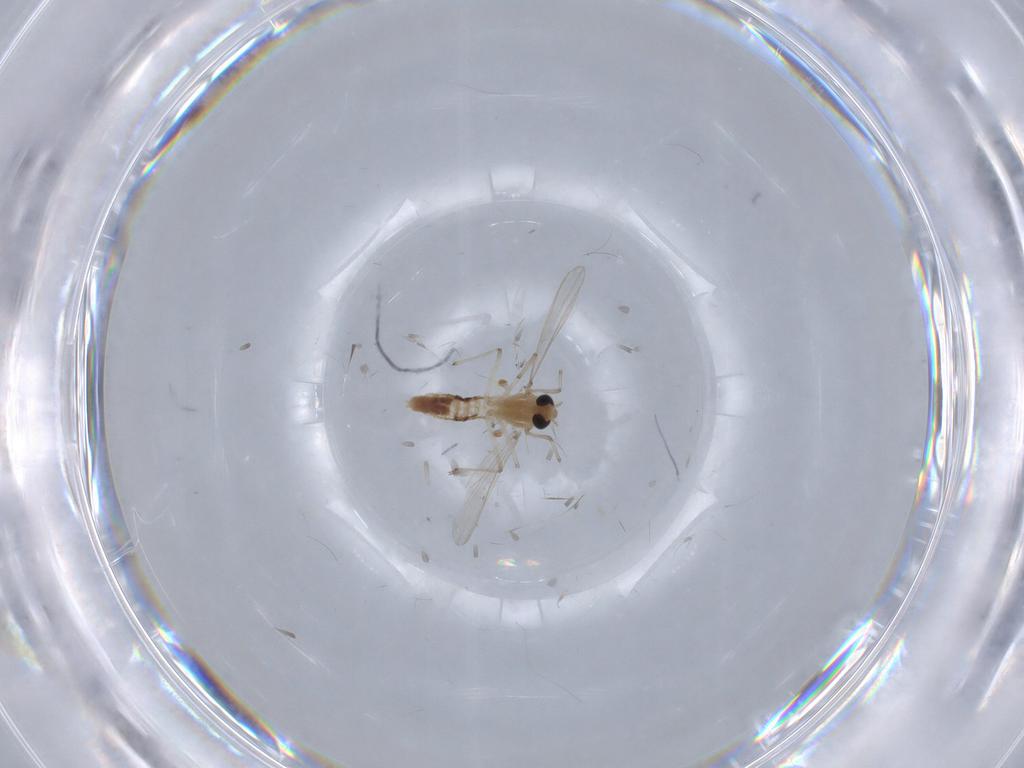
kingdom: Animalia
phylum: Arthropoda
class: Insecta
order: Diptera
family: Chironomidae
